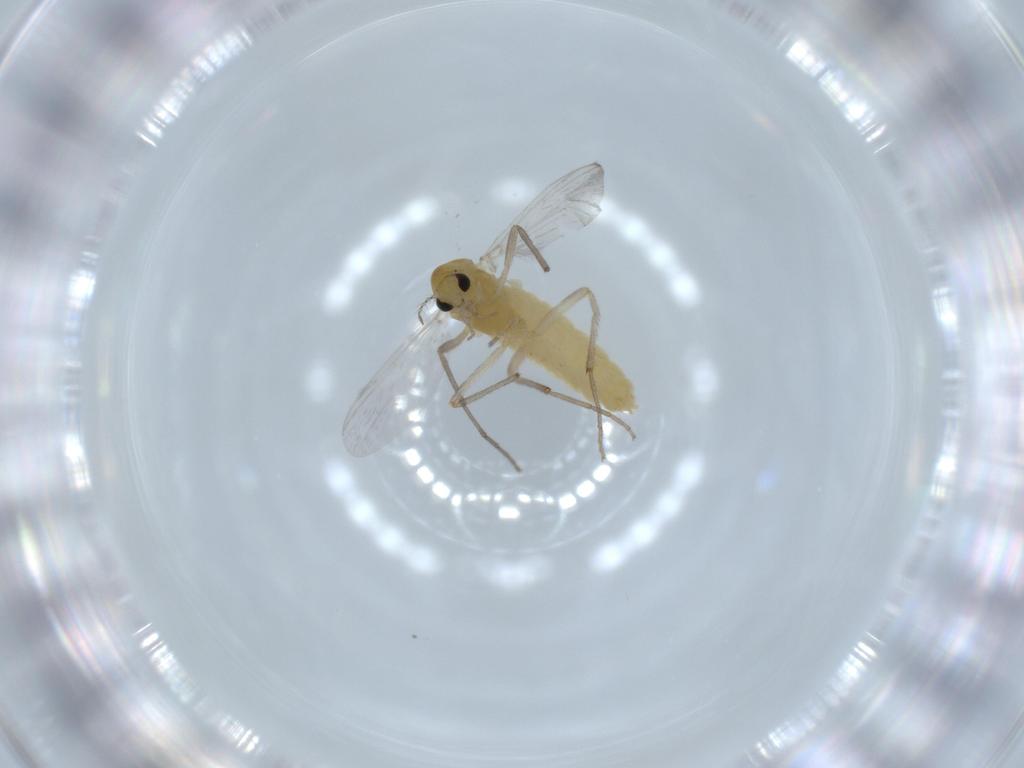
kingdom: Animalia
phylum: Arthropoda
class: Insecta
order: Diptera
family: Chironomidae
